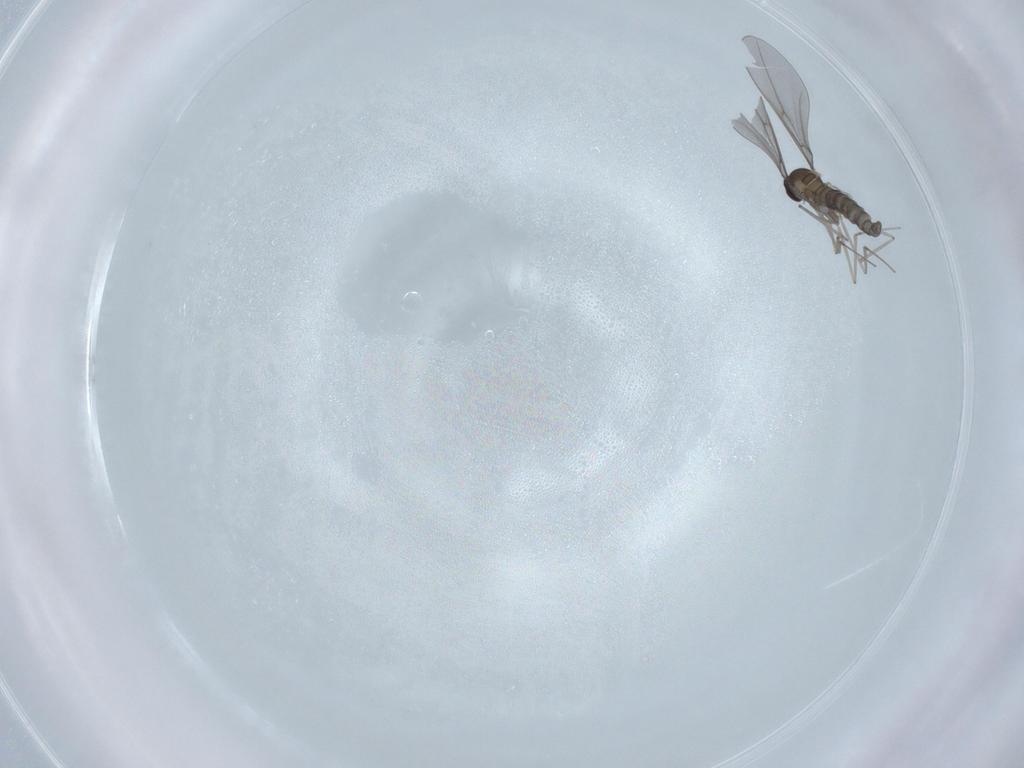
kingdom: Animalia
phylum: Arthropoda
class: Insecta
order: Diptera
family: Cecidomyiidae
